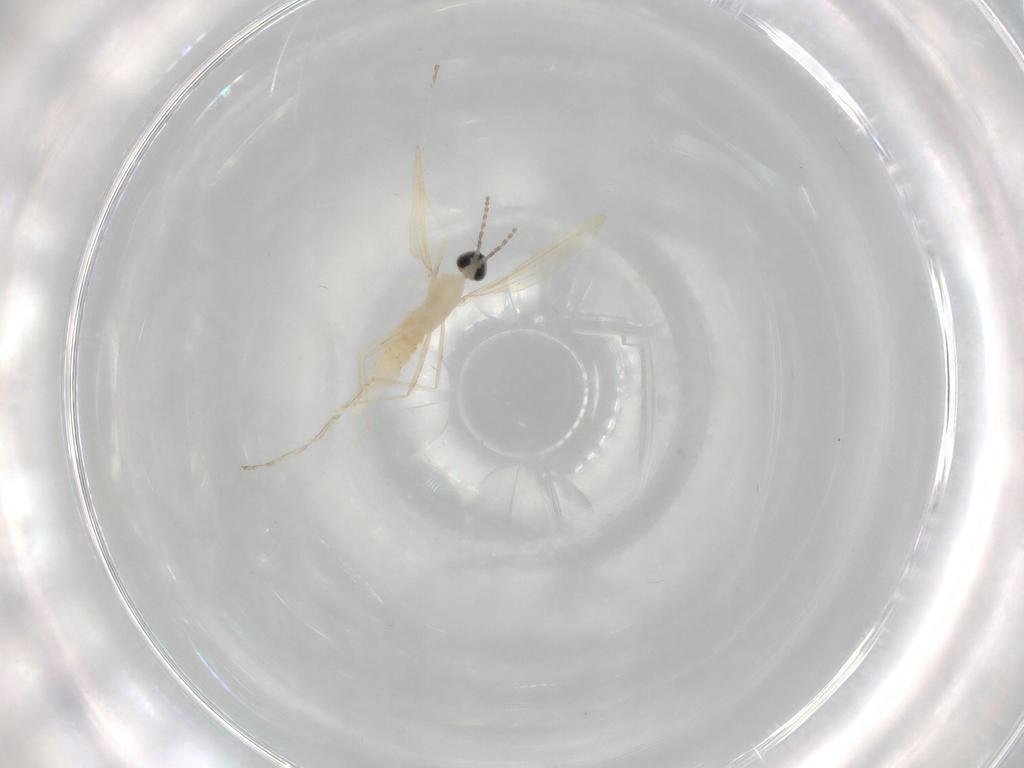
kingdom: Animalia
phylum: Arthropoda
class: Insecta
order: Diptera
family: Cecidomyiidae
